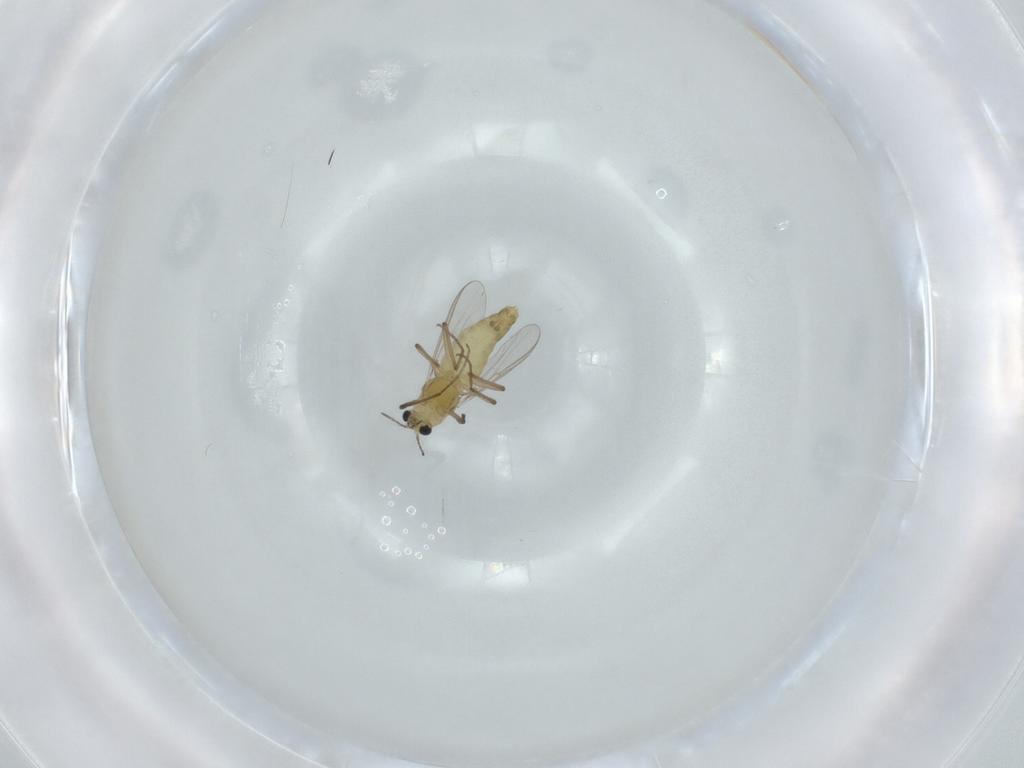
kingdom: Animalia
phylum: Arthropoda
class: Insecta
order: Diptera
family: Chironomidae
